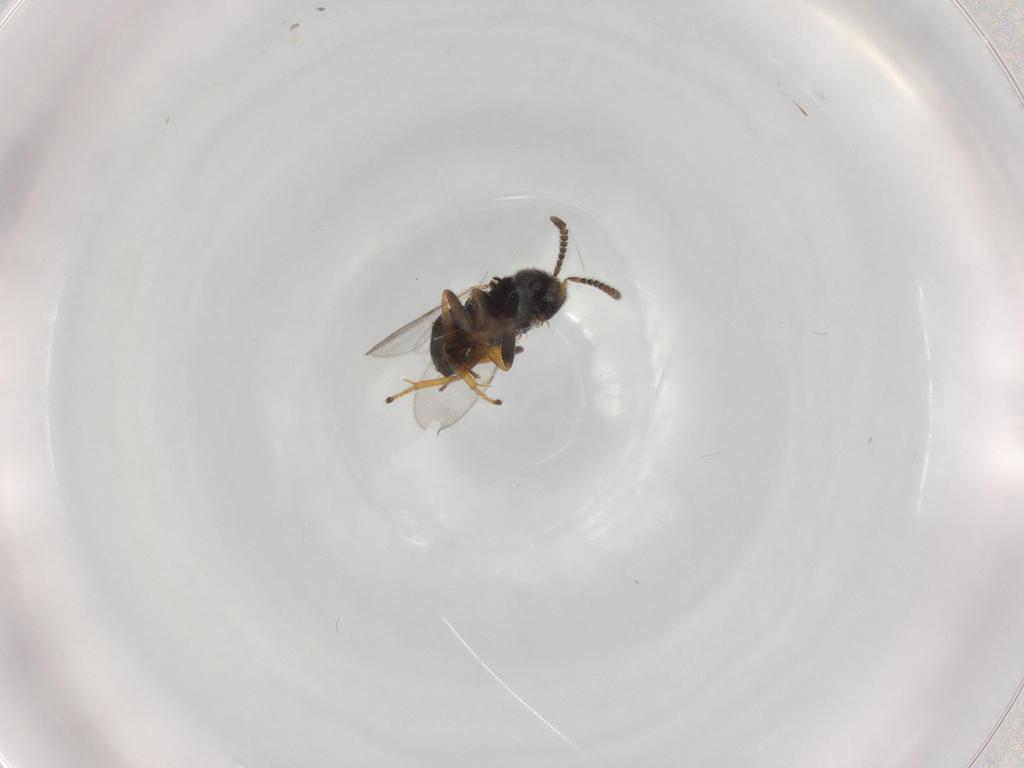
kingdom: Animalia
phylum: Arthropoda
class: Insecta
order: Hymenoptera
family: Encyrtidae
